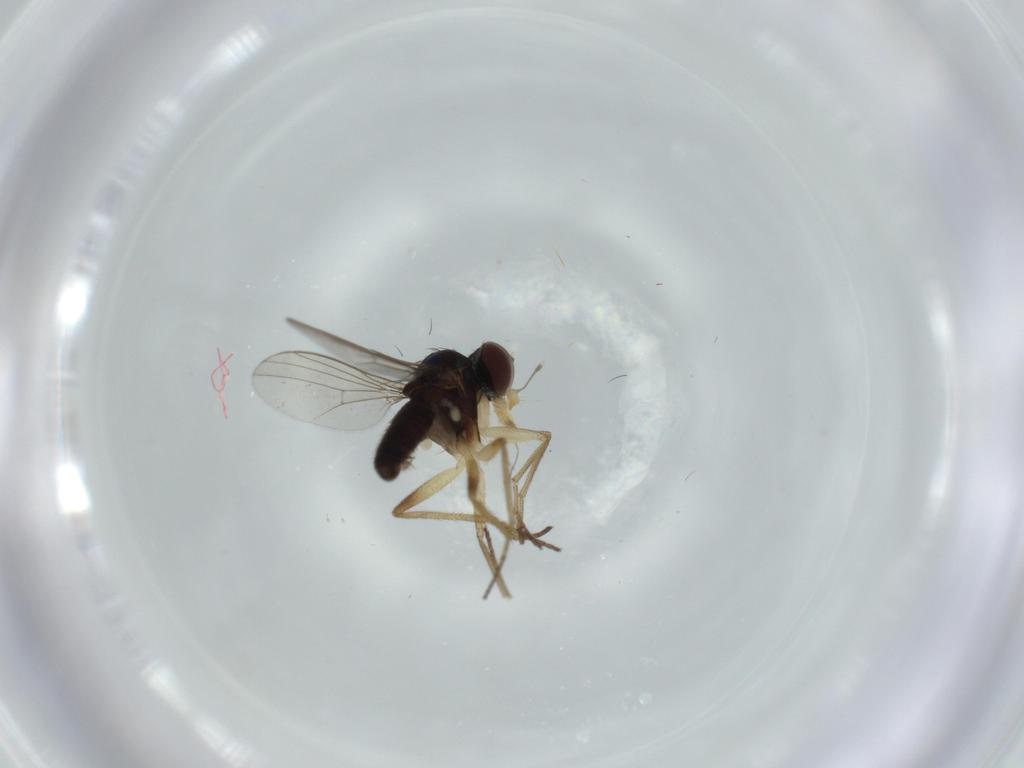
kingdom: Animalia
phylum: Arthropoda
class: Insecta
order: Diptera
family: Dolichopodidae
